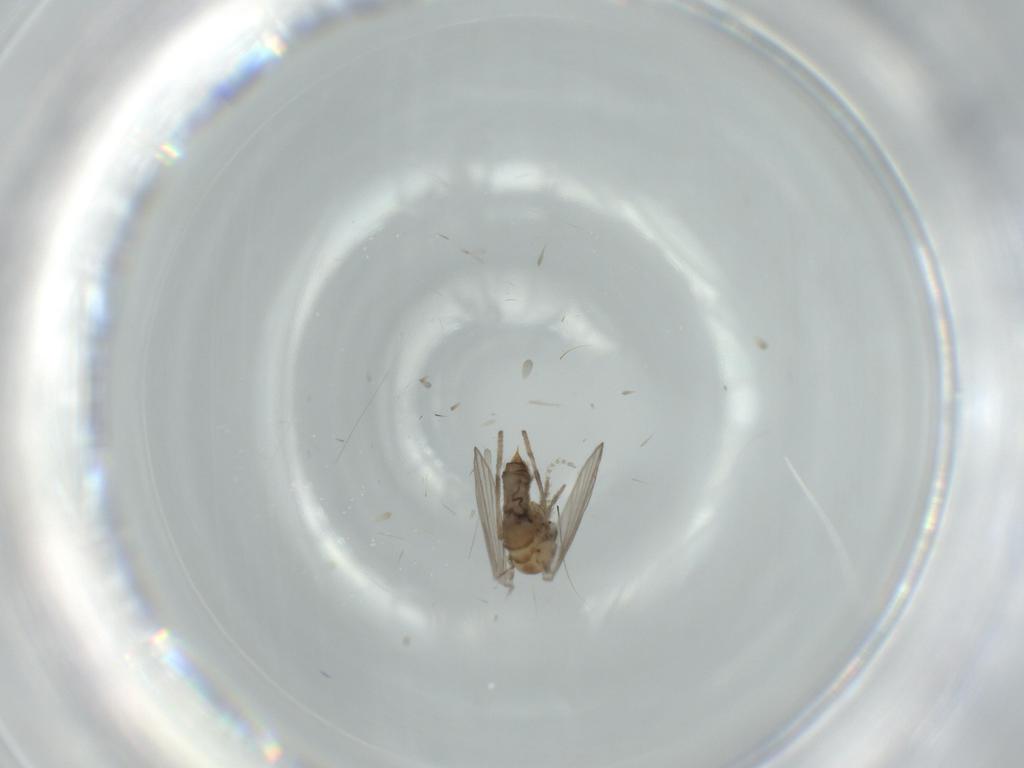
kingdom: Animalia
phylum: Arthropoda
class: Insecta
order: Diptera
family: Psychodidae
